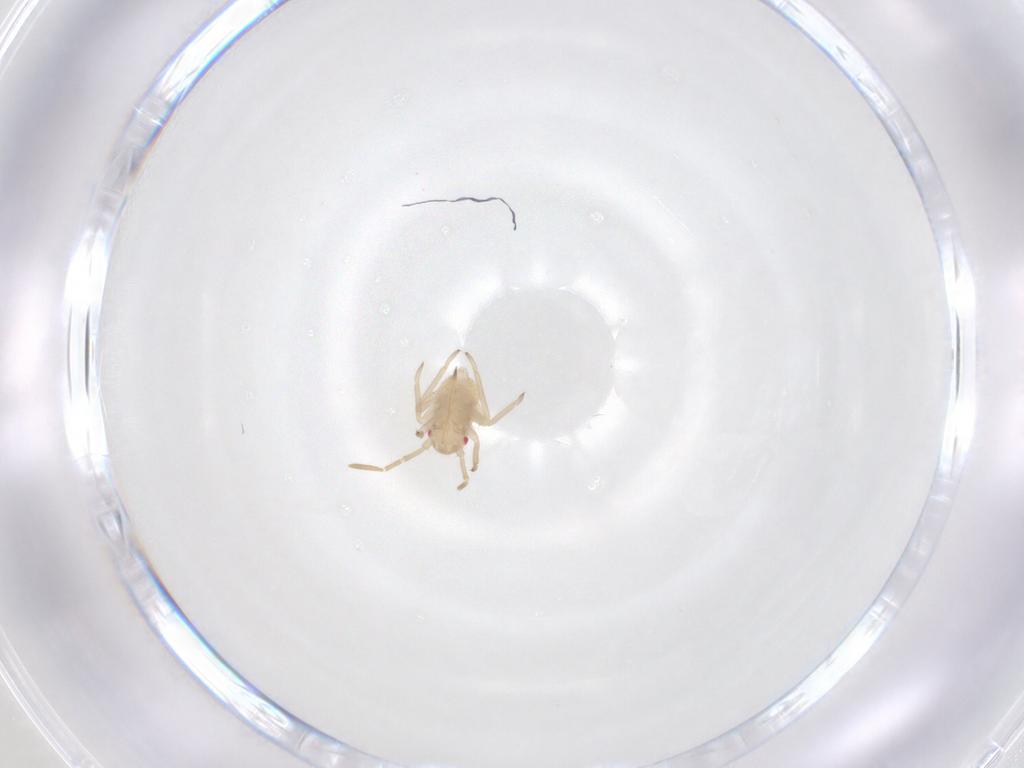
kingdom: Animalia
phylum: Arthropoda
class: Insecta
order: Hemiptera
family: Miridae
